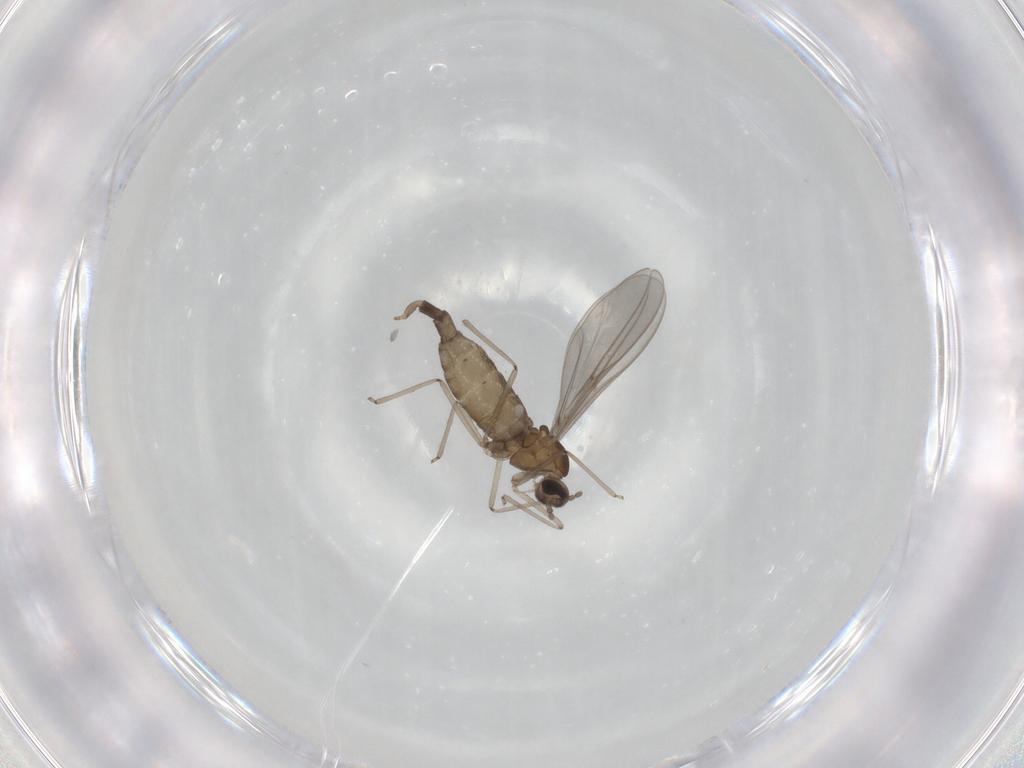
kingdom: Animalia
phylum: Arthropoda
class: Insecta
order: Diptera
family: Cecidomyiidae
